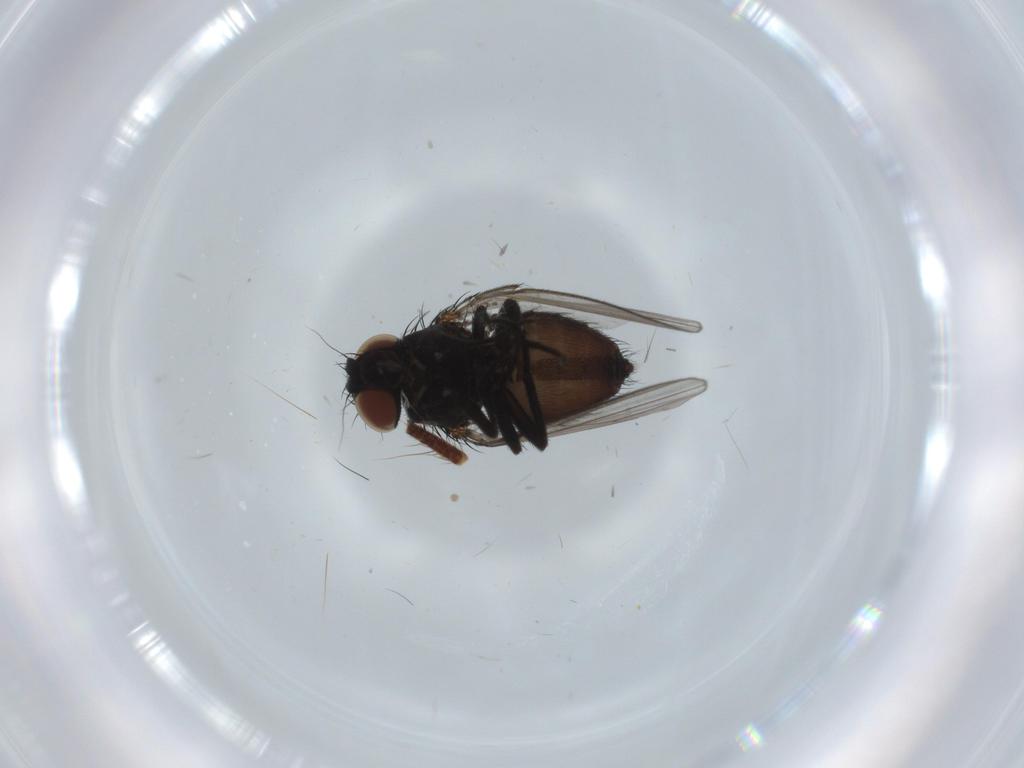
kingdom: Animalia
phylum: Arthropoda
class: Insecta
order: Diptera
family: Milichiidae
